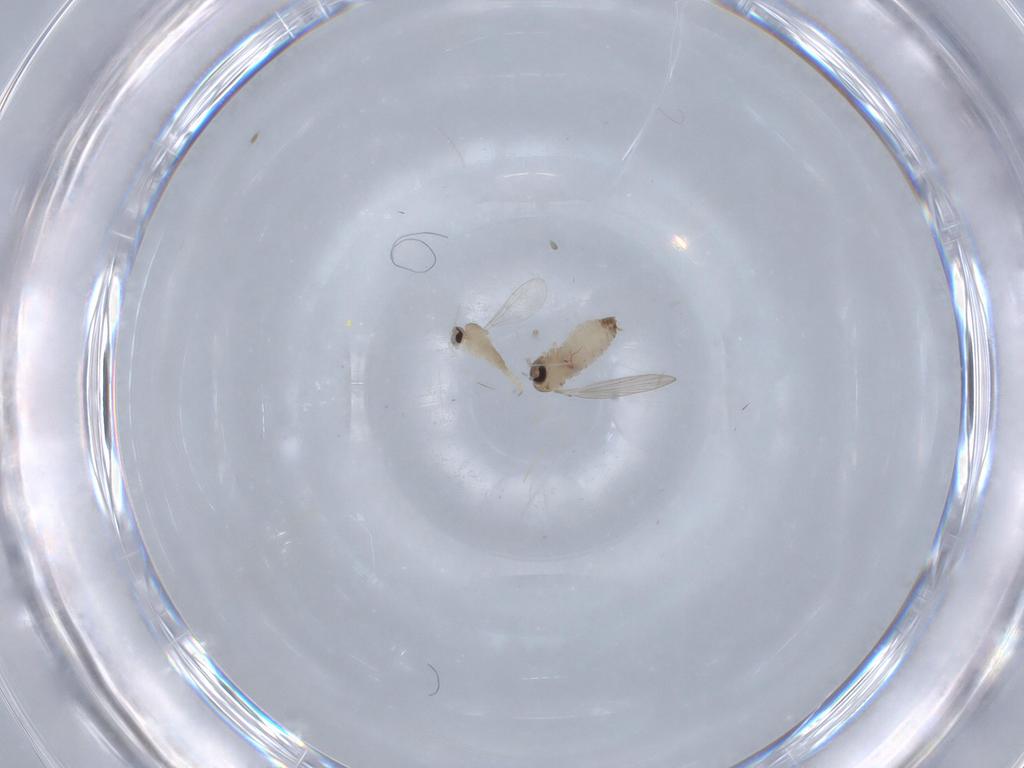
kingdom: Animalia
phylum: Arthropoda
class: Insecta
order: Diptera
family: Psychodidae
